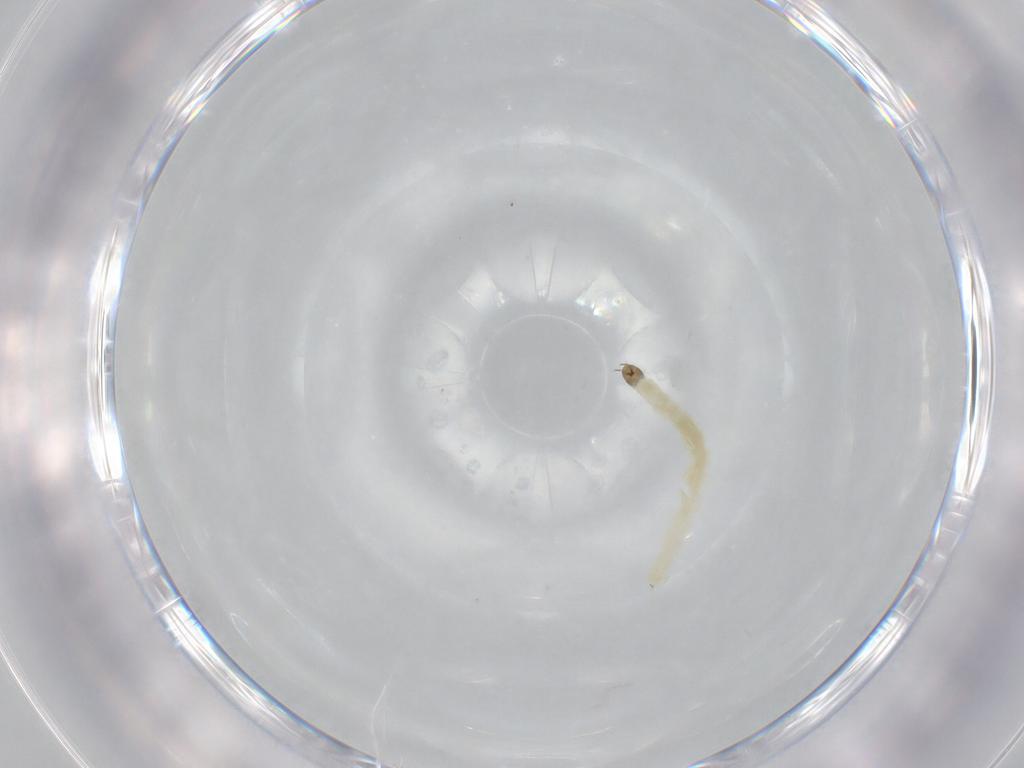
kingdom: Animalia
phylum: Arthropoda
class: Insecta
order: Diptera
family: Chironomidae
